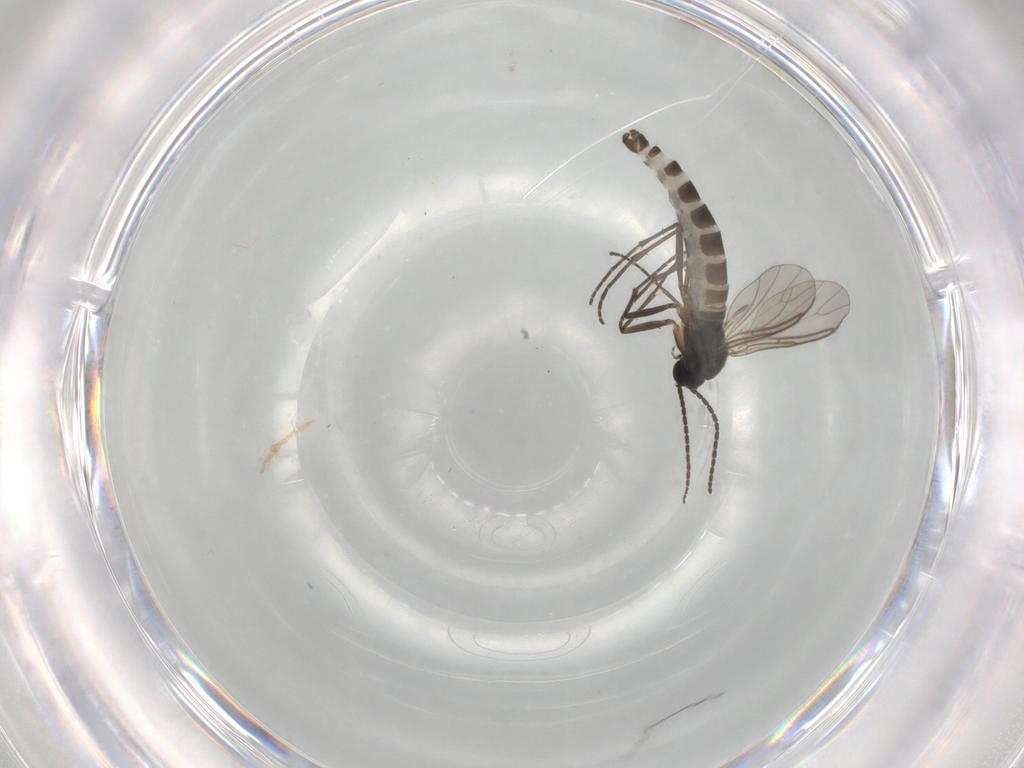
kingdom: Animalia
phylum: Arthropoda
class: Insecta
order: Diptera
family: Sciaridae
